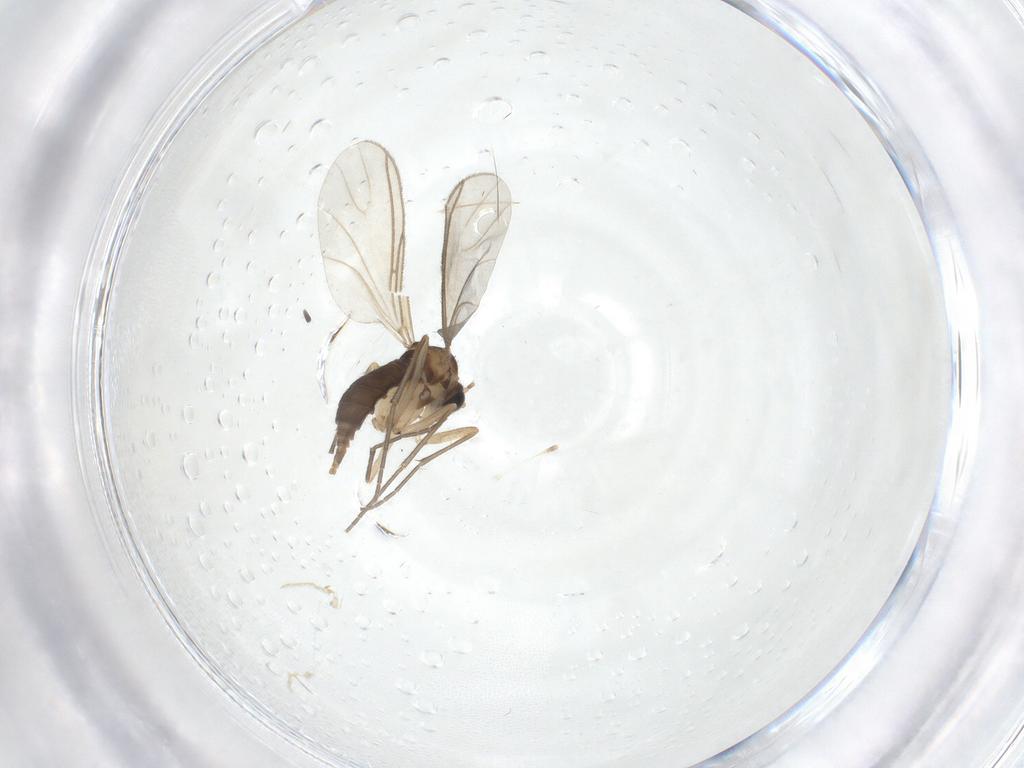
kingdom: Animalia
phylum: Arthropoda
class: Insecta
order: Diptera
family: Sciaridae
